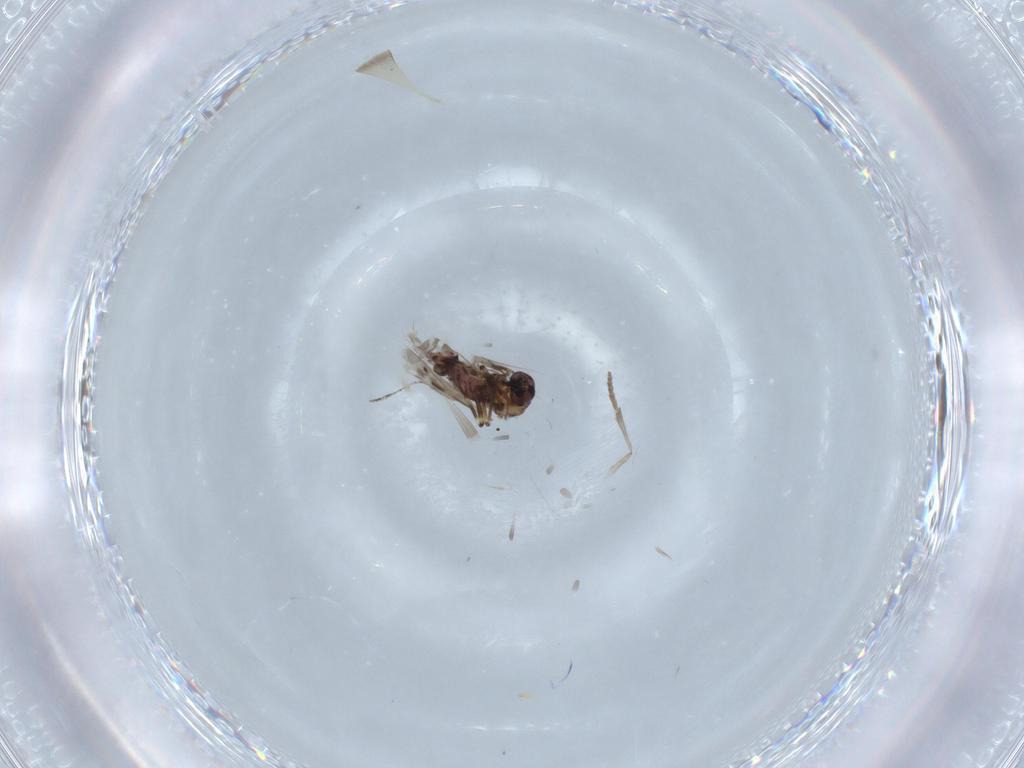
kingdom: Animalia
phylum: Arthropoda
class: Insecta
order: Diptera
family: Ceratopogonidae
